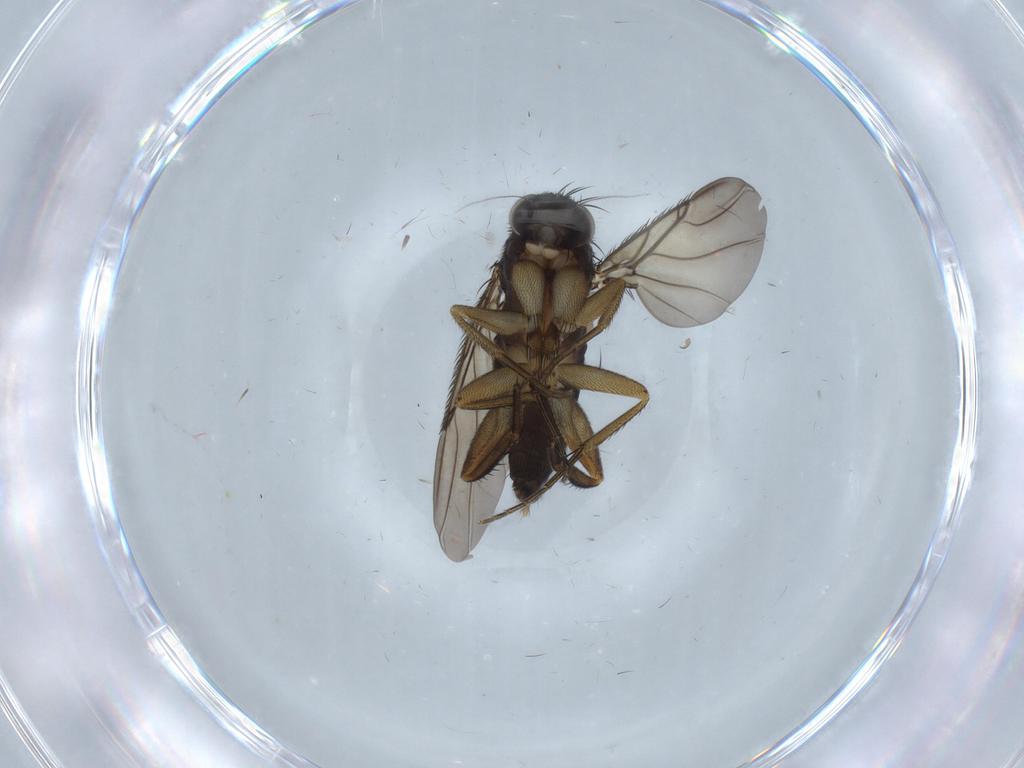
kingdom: Animalia
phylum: Arthropoda
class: Insecta
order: Diptera
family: Phoridae
